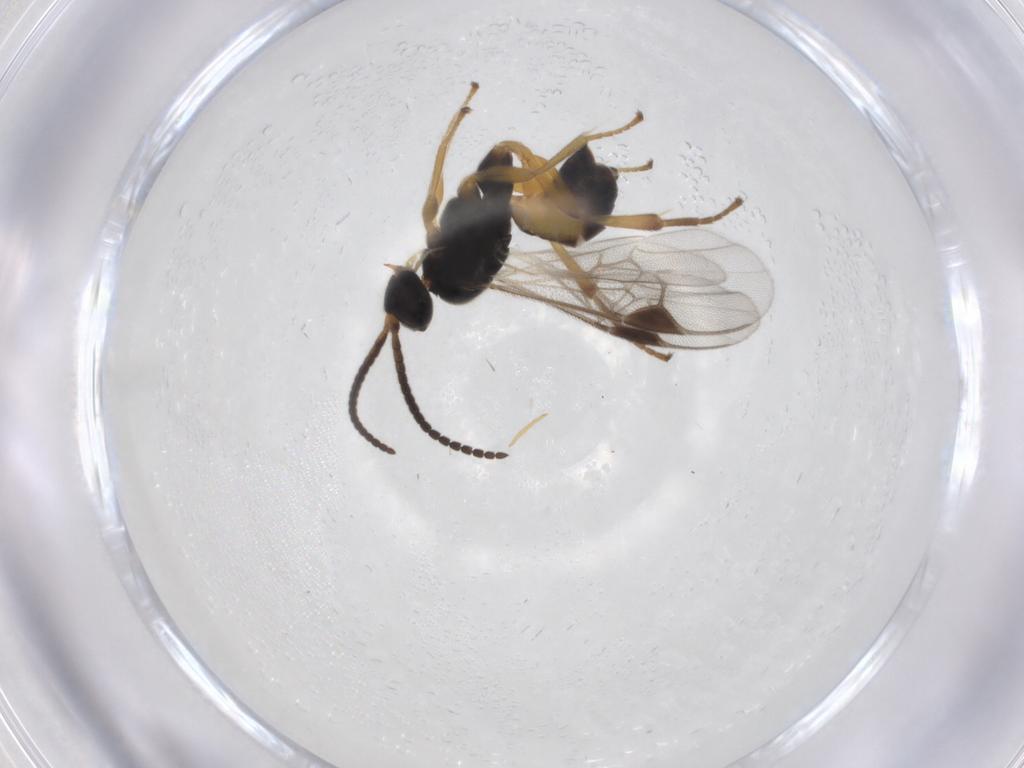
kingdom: Animalia
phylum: Arthropoda
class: Insecta
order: Hymenoptera
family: Braconidae
